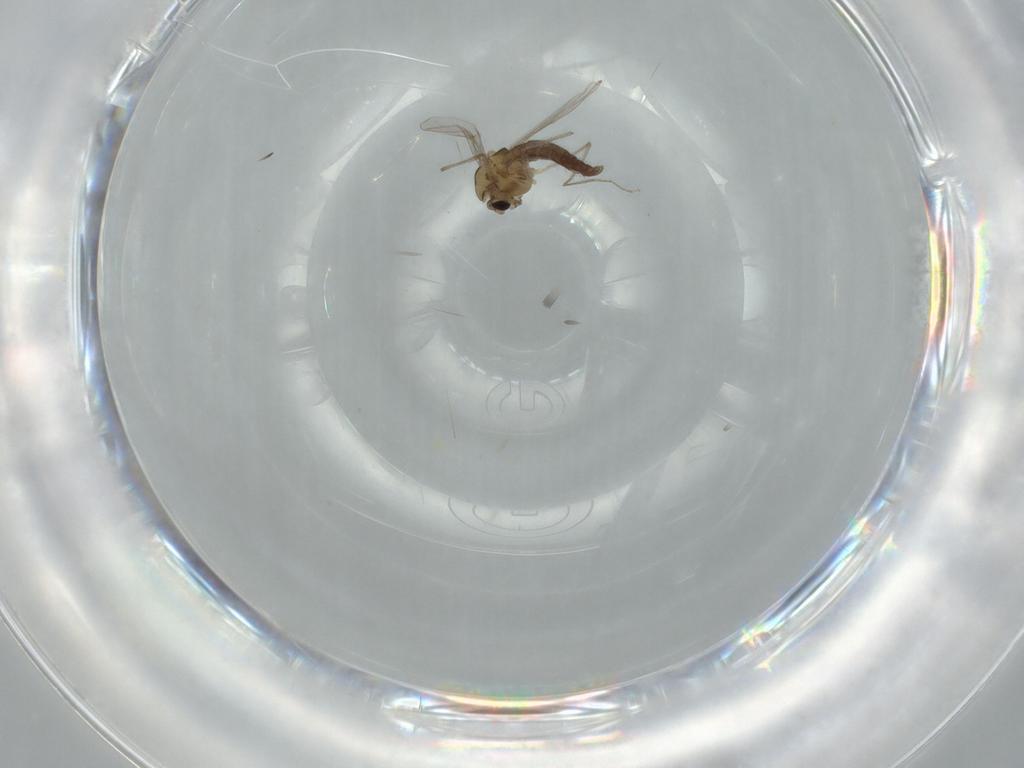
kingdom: Animalia
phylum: Arthropoda
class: Insecta
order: Diptera
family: Chironomidae
